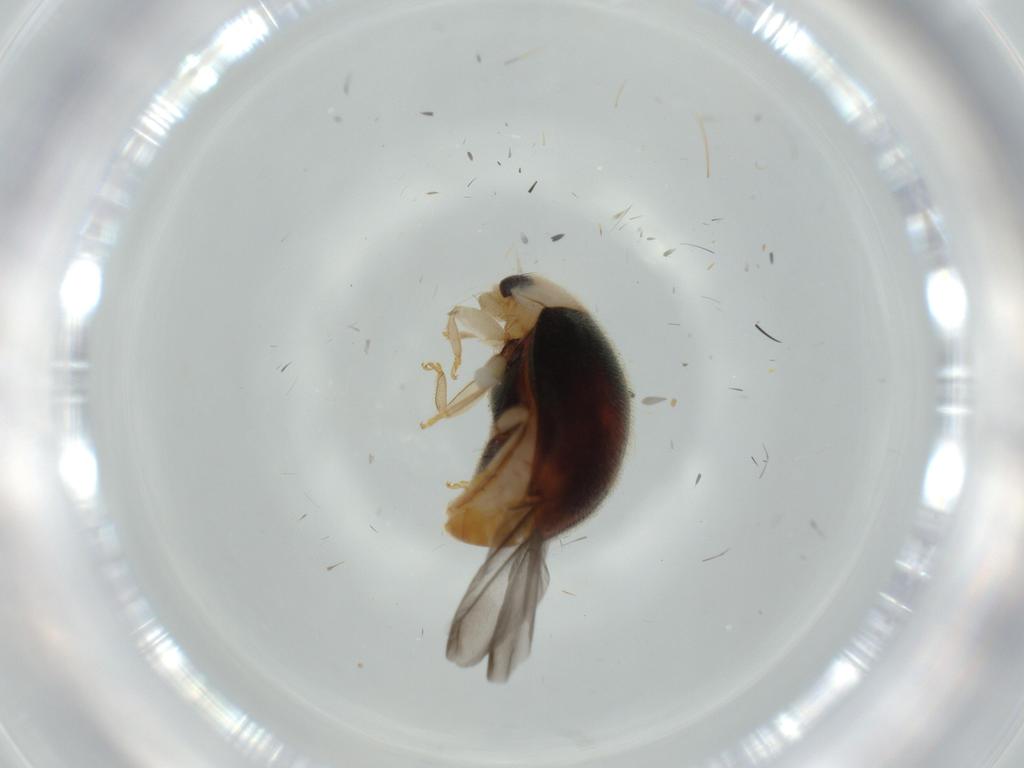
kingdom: Animalia
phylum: Arthropoda
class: Insecta
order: Coleoptera
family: Coccinellidae
